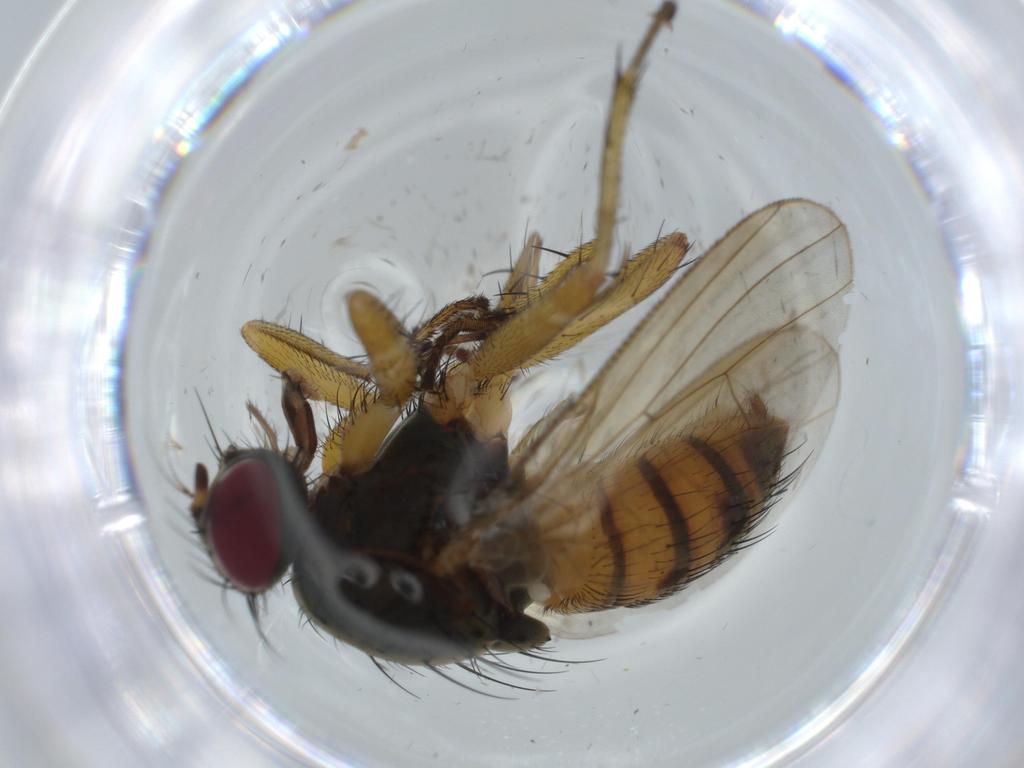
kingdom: Animalia
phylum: Arthropoda
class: Insecta
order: Diptera
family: Muscidae
